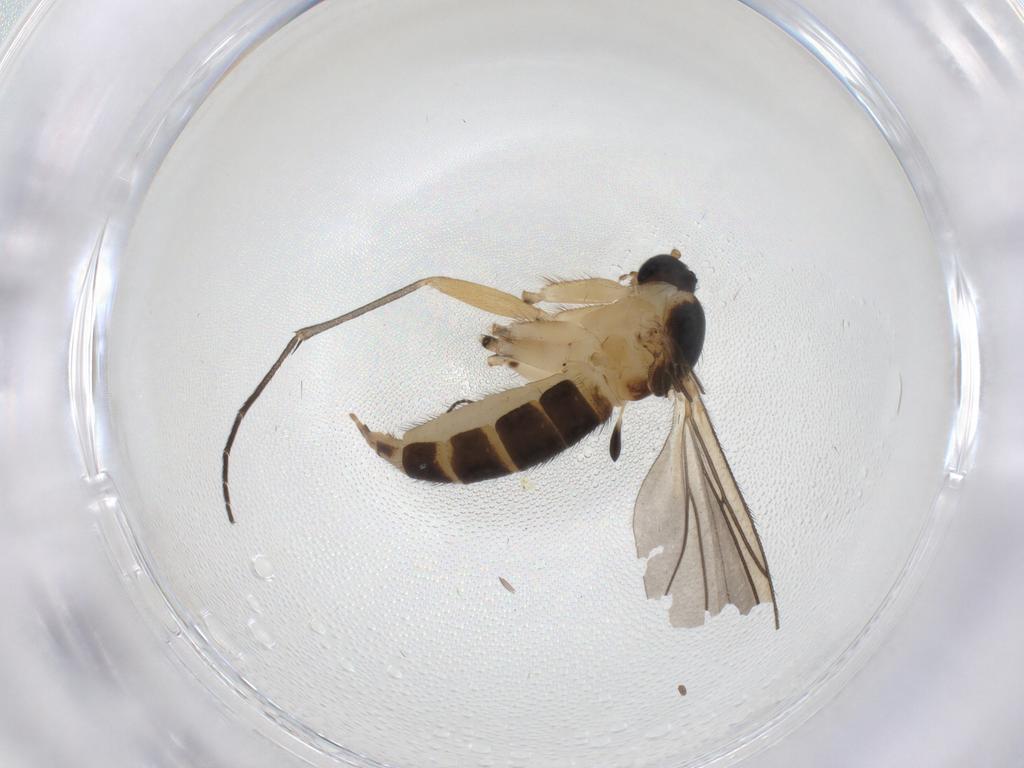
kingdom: Animalia
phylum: Arthropoda
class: Insecta
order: Diptera
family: Sciaridae
